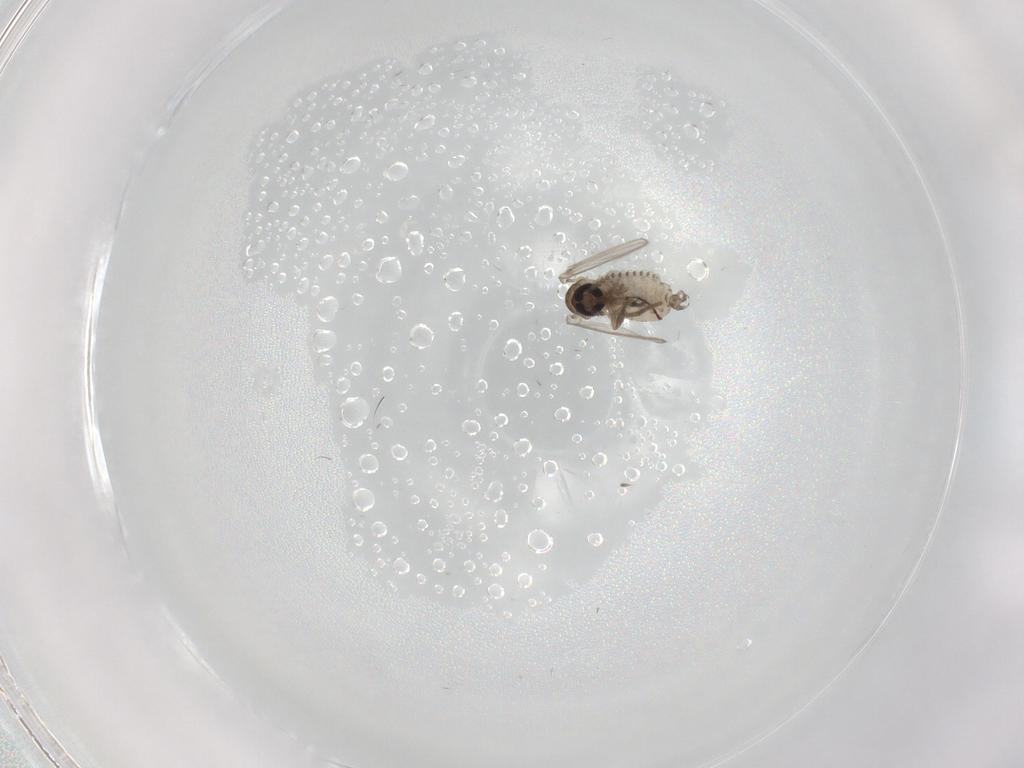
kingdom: Animalia
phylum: Arthropoda
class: Insecta
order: Diptera
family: Psychodidae
